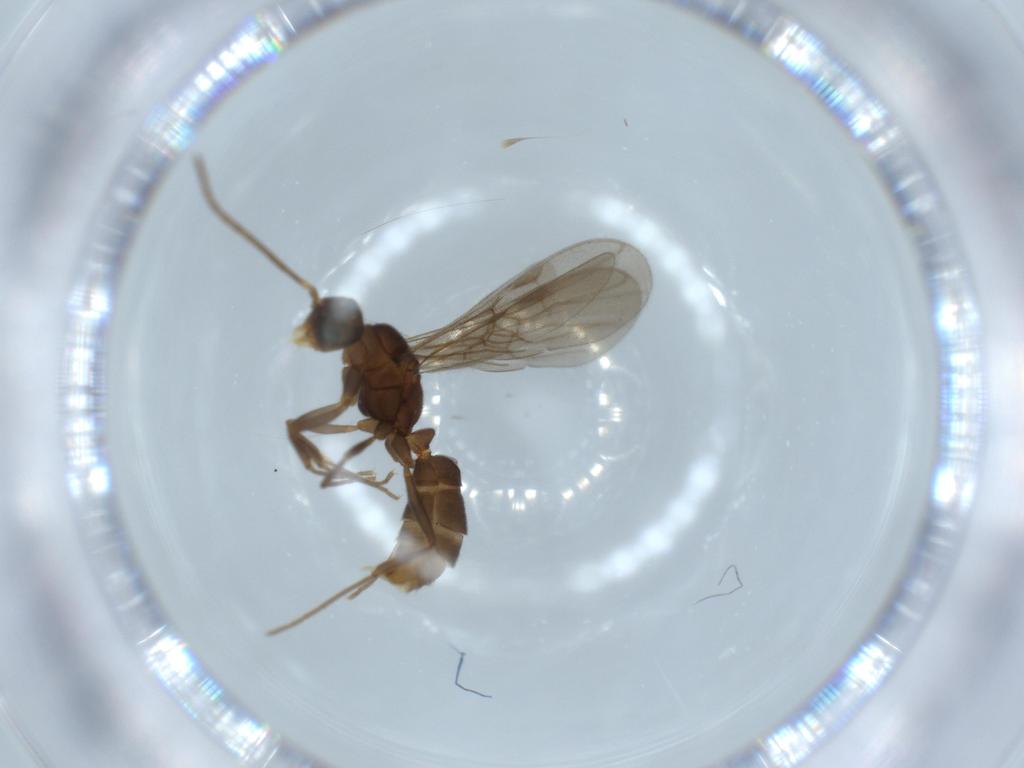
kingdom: Animalia
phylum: Arthropoda
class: Insecta
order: Hymenoptera
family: Formicidae
